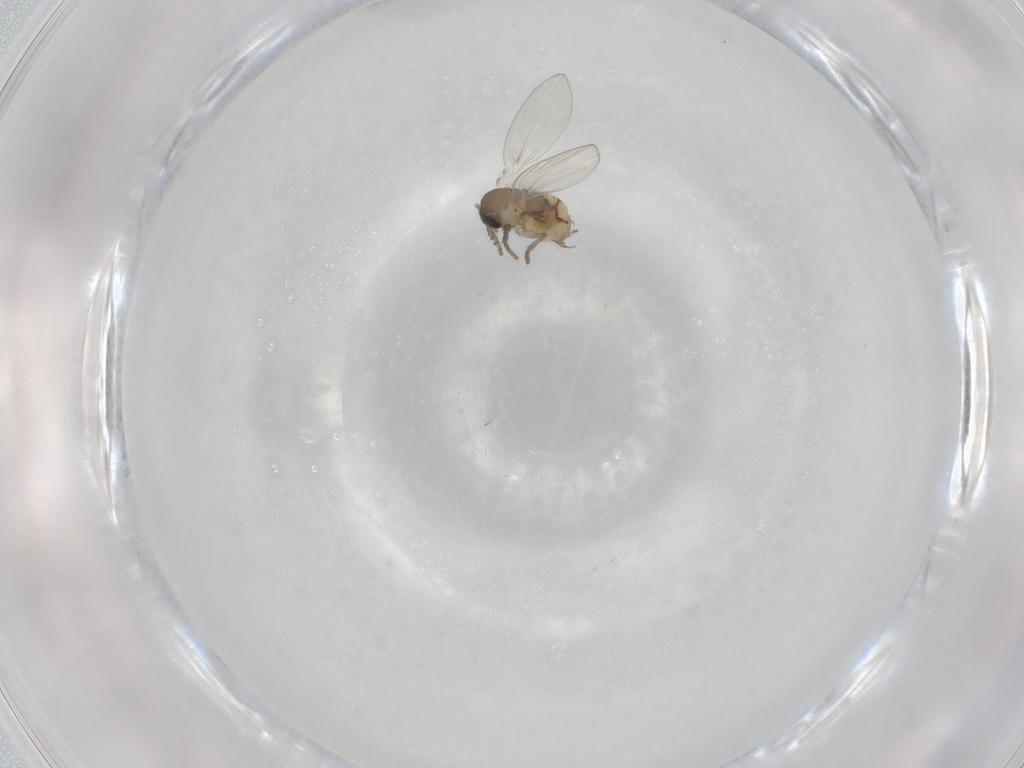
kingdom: Animalia
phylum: Arthropoda
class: Insecta
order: Diptera
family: Psychodidae
